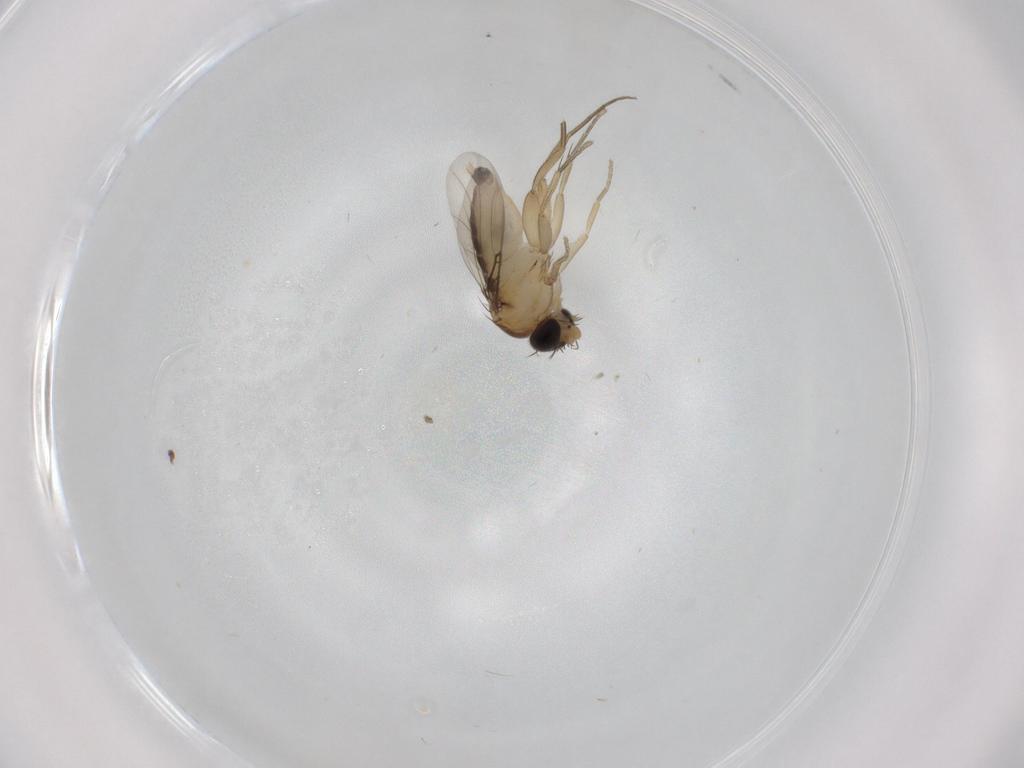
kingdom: Animalia
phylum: Arthropoda
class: Insecta
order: Diptera
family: Phoridae
